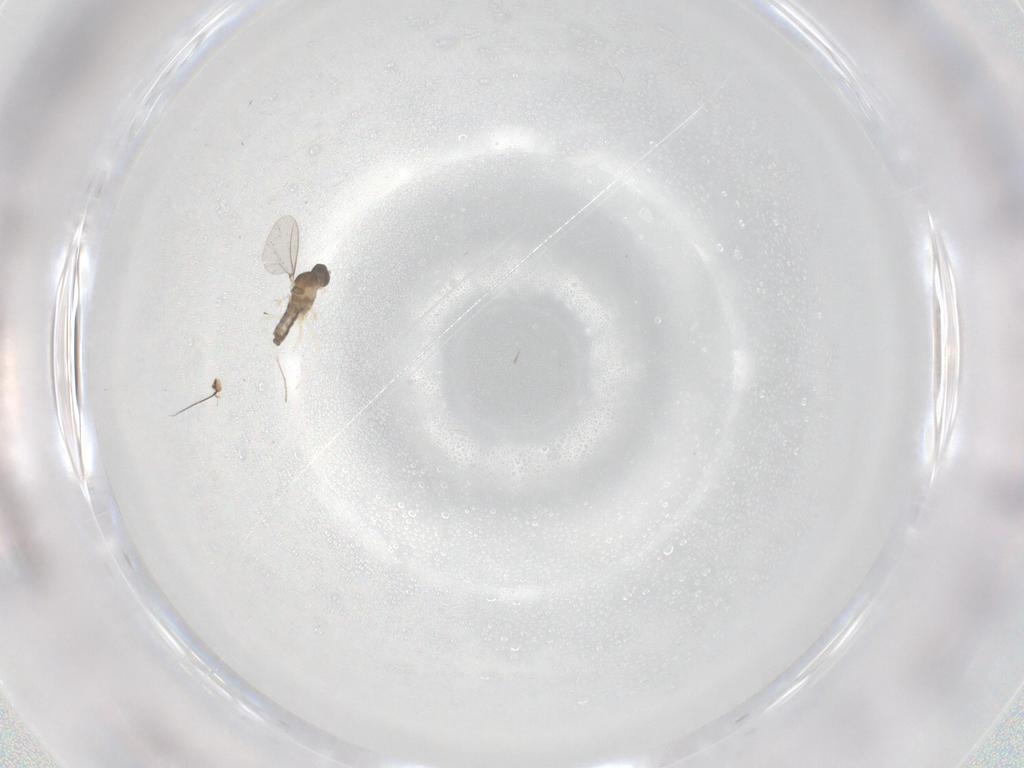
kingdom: Animalia
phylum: Arthropoda
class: Insecta
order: Diptera
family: Cecidomyiidae
